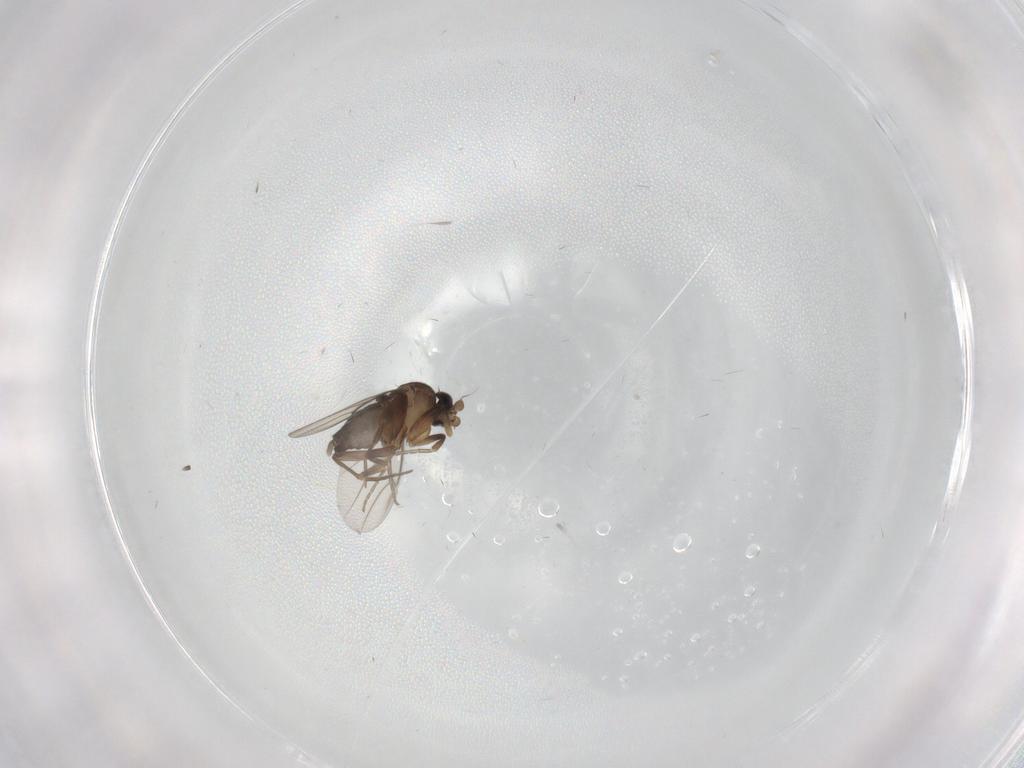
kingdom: Animalia
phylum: Arthropoda
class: Insecta
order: Diptera
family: Phoridae
